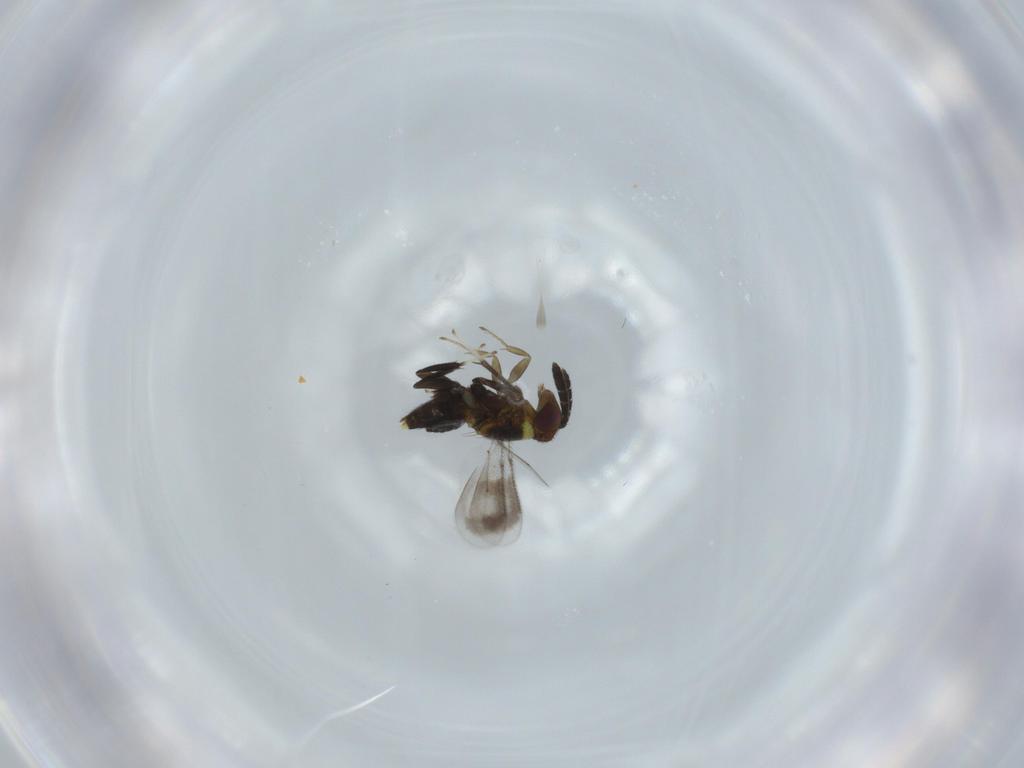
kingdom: Animalia
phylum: Arthropoda
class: Insecta
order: Hymenoptera
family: Aphelinidae
